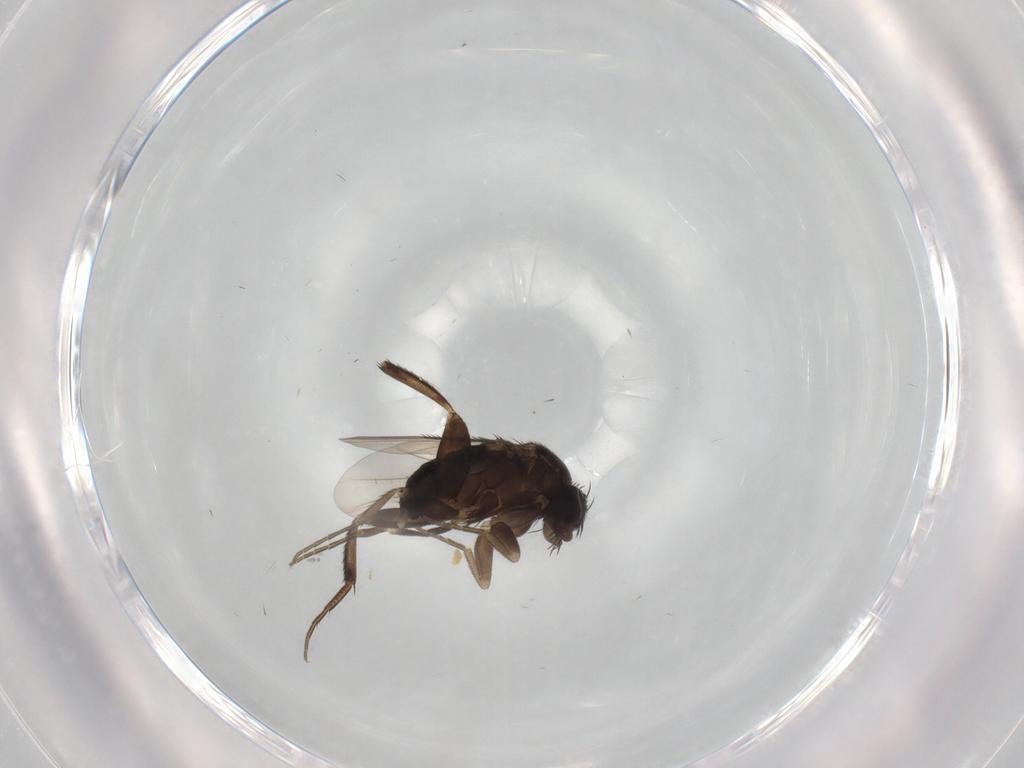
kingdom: Animalia
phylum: Arthropoda
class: Insecta
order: Diptera
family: Phoridae
